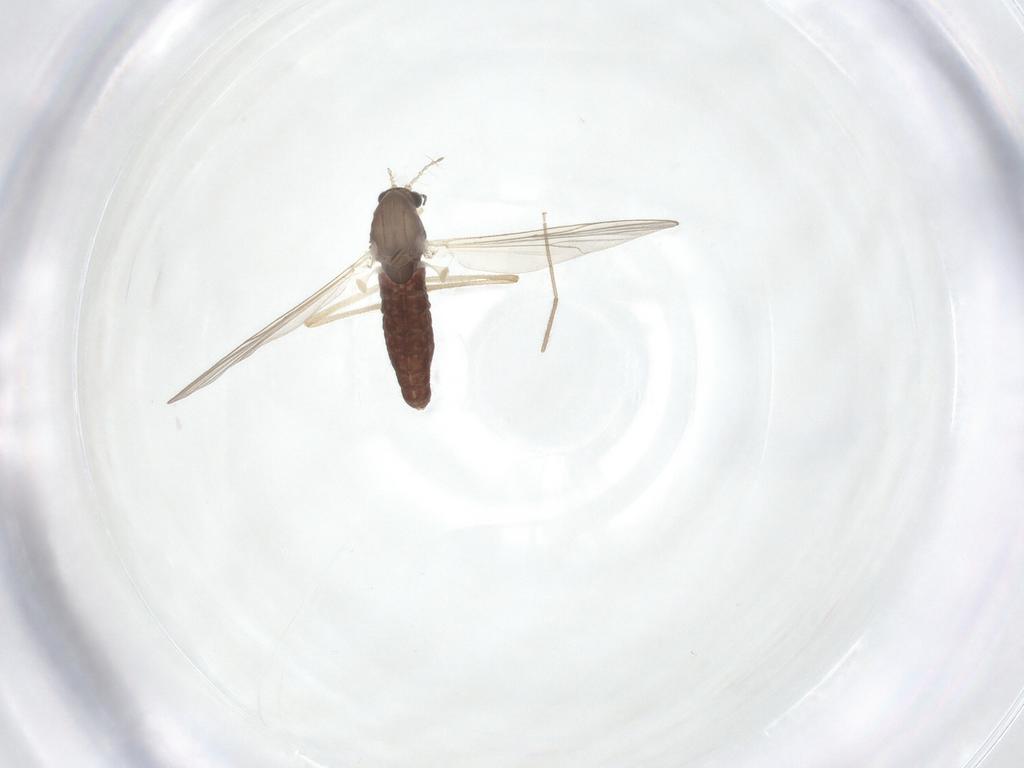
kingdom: Animalia
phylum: Arthropoda
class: Insecta
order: Diptera
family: Chironomidae
